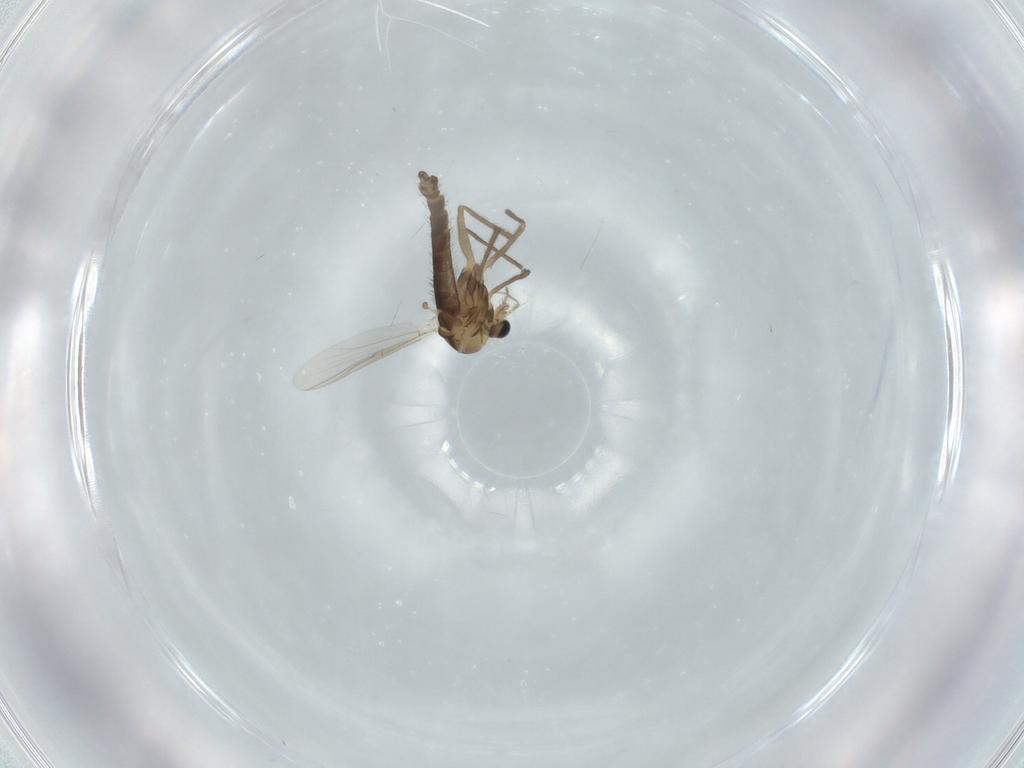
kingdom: Animalia
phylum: Arthropoda
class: Insecta
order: Diptera
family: Chironomidae
